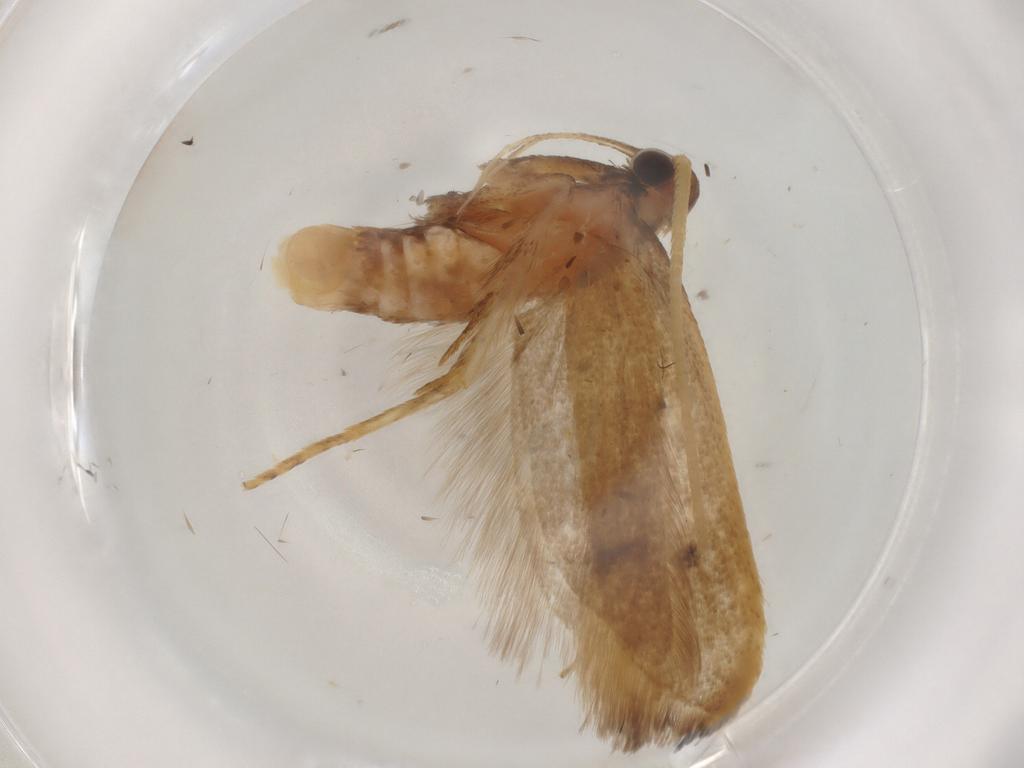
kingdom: Animalia
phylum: Arthropoda
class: Insecta
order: Lepidoptera
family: Lecithoceridae
